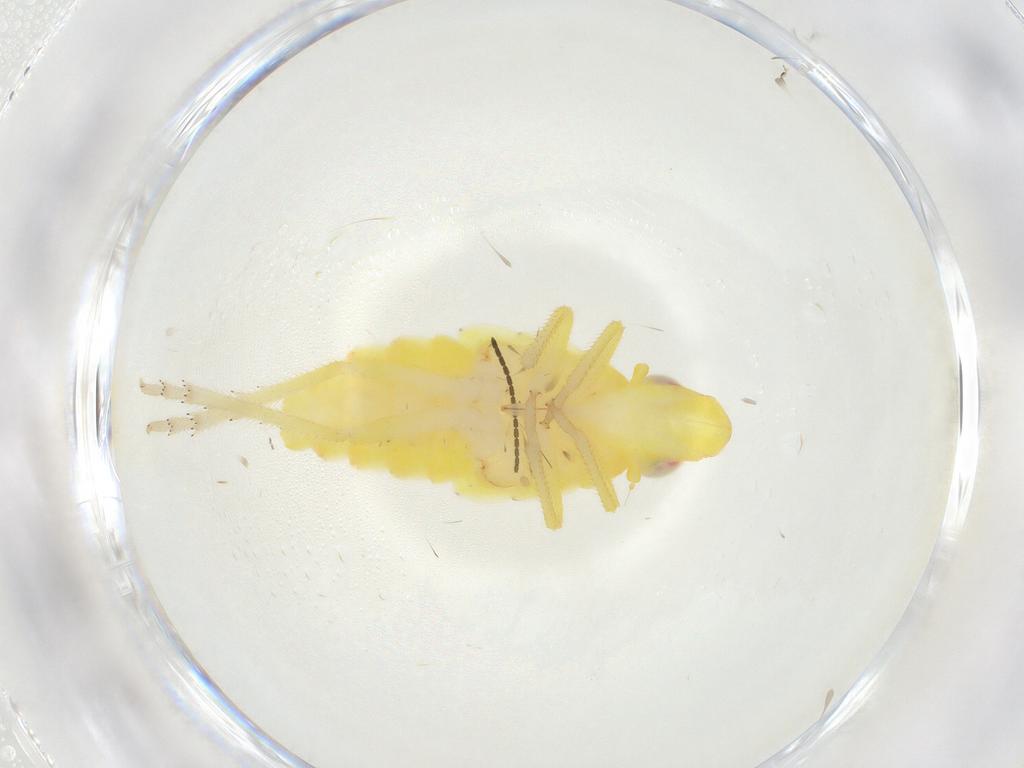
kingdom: Animalia
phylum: Arthropoda
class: Insecta
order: Hemiptera
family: Tropiduchidae
